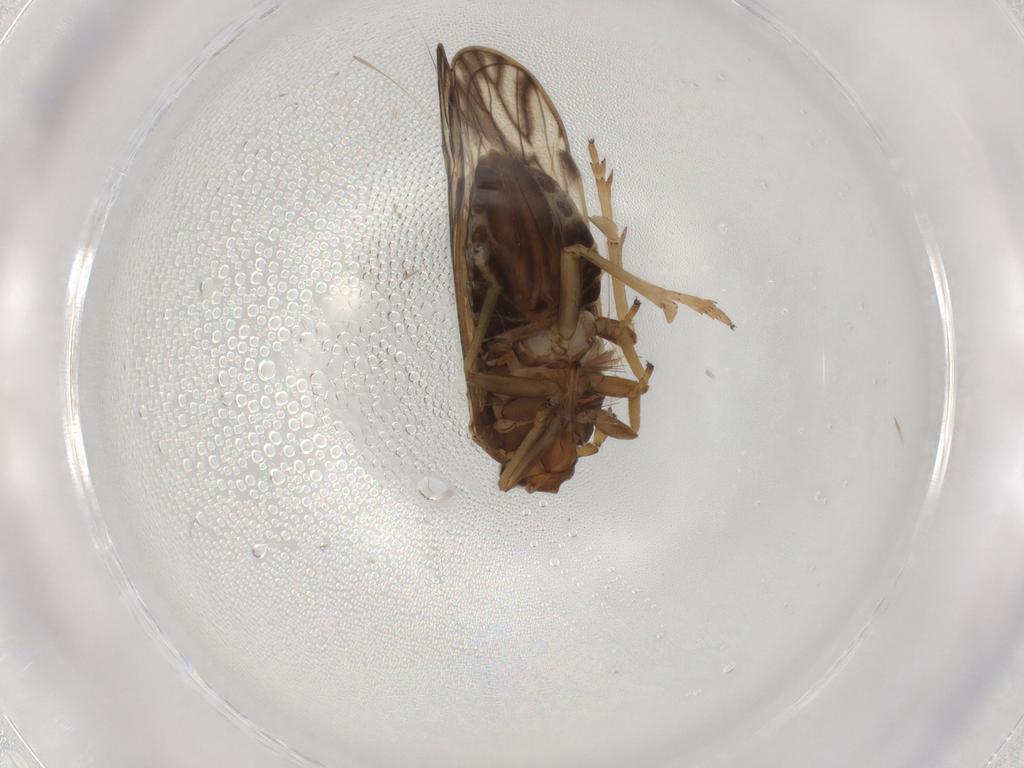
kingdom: Animalia
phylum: Arthropoda
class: Insecta
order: Hemiptera
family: Delphacidae
